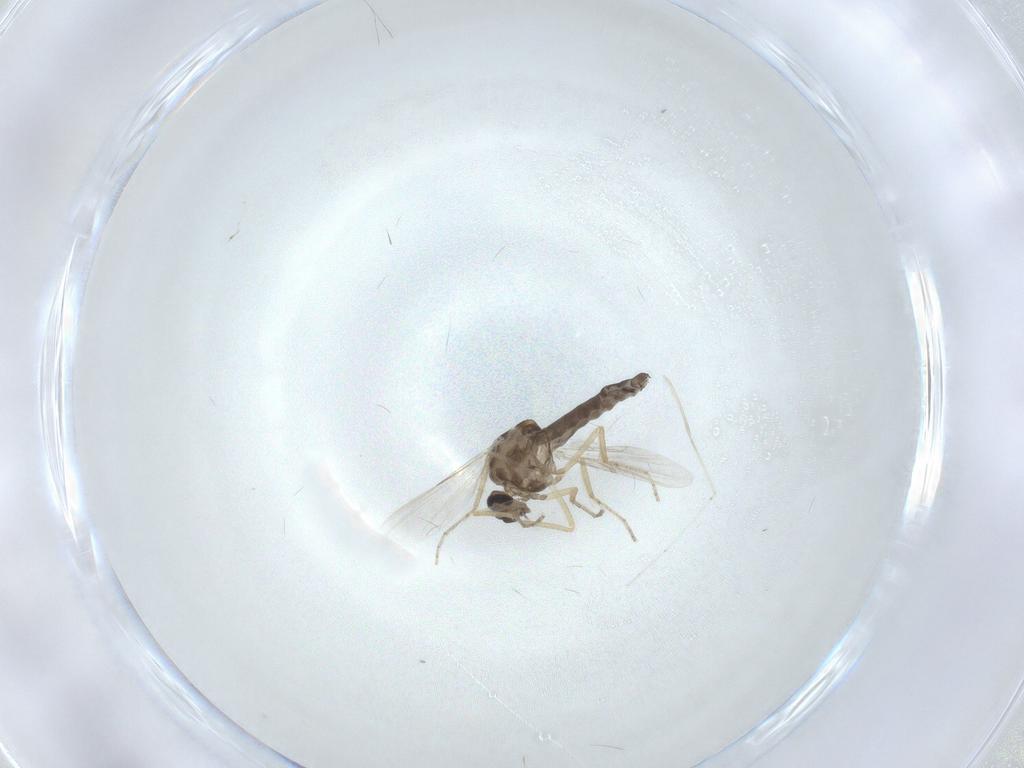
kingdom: Animalia
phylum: Arthropoda
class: Insecta
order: Diptera
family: Ceratopogonidae
